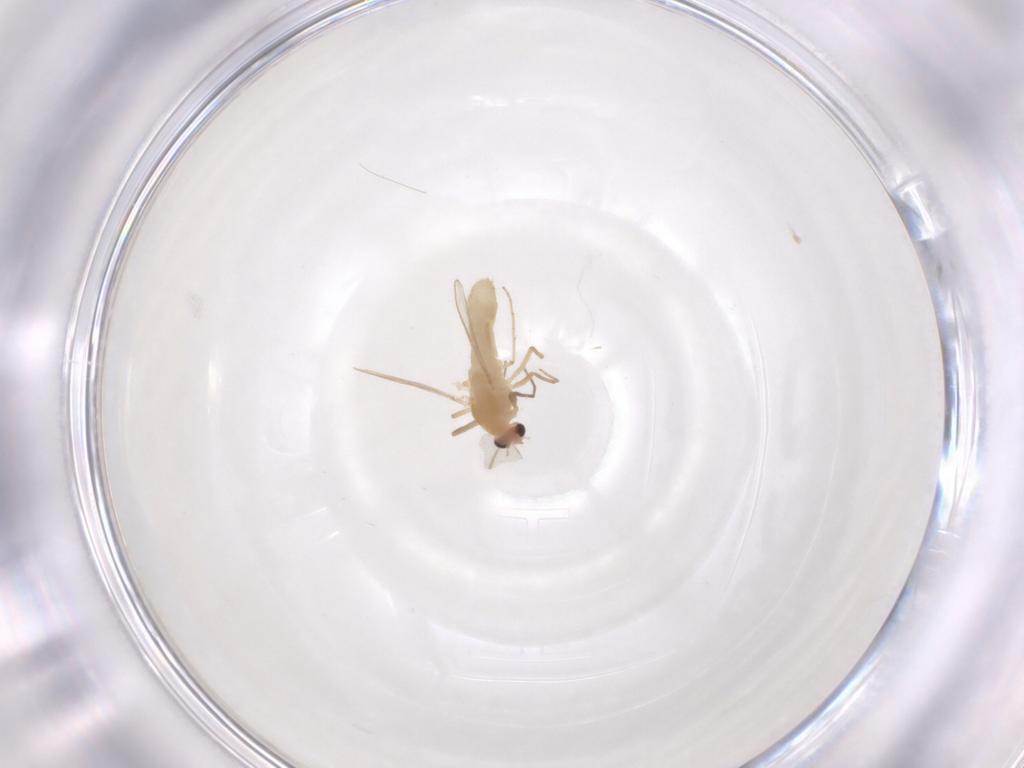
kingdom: Animalia
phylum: Arthropoda
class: Insecta
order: Diptera
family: Chironomidae
